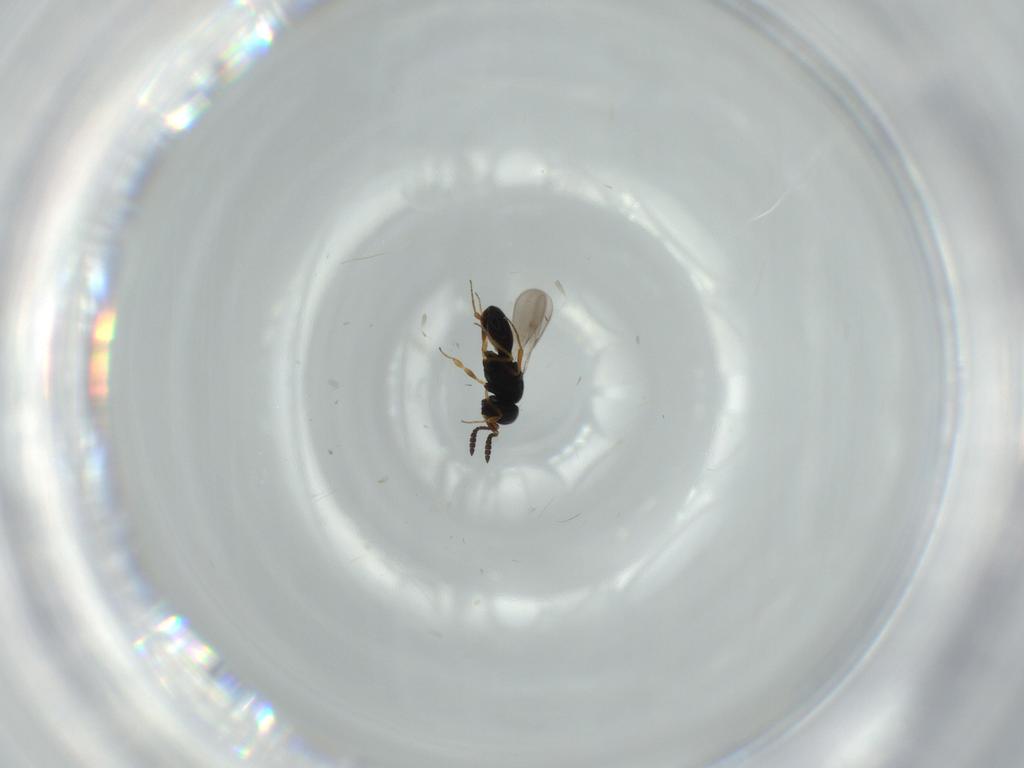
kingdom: Animalia
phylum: Arthropoda
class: Insecta
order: Hymenoptera
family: Scelionidae
